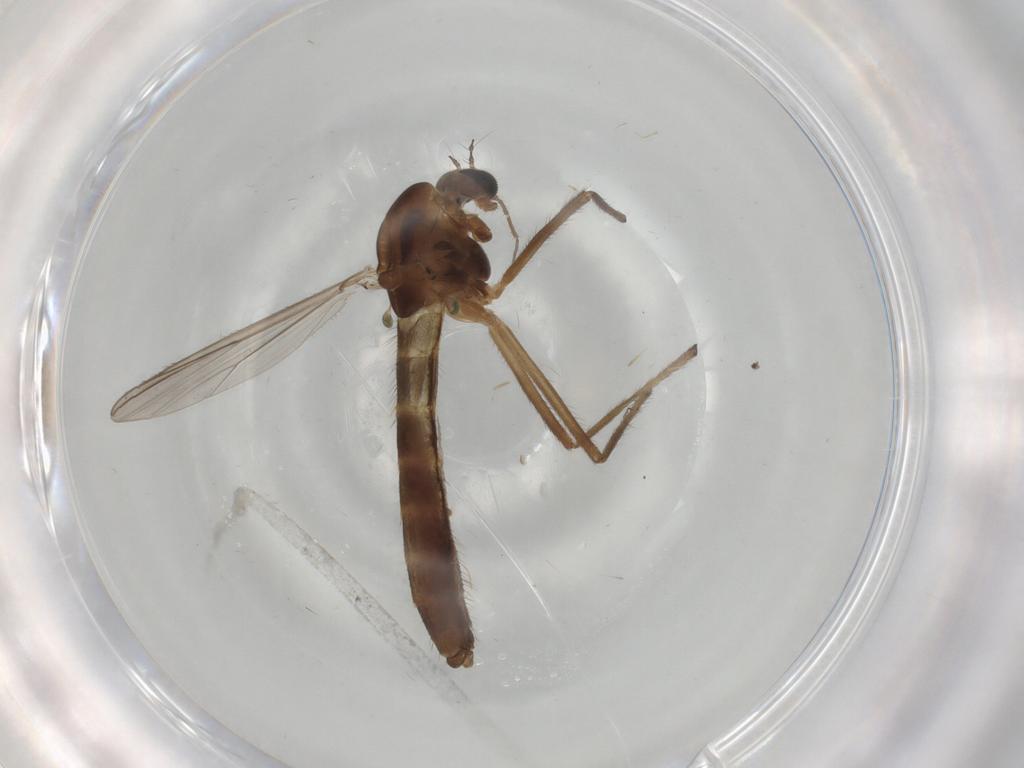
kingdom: Animalia
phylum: Arthropoda
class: Insecta
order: Diptera
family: Chironomidae
